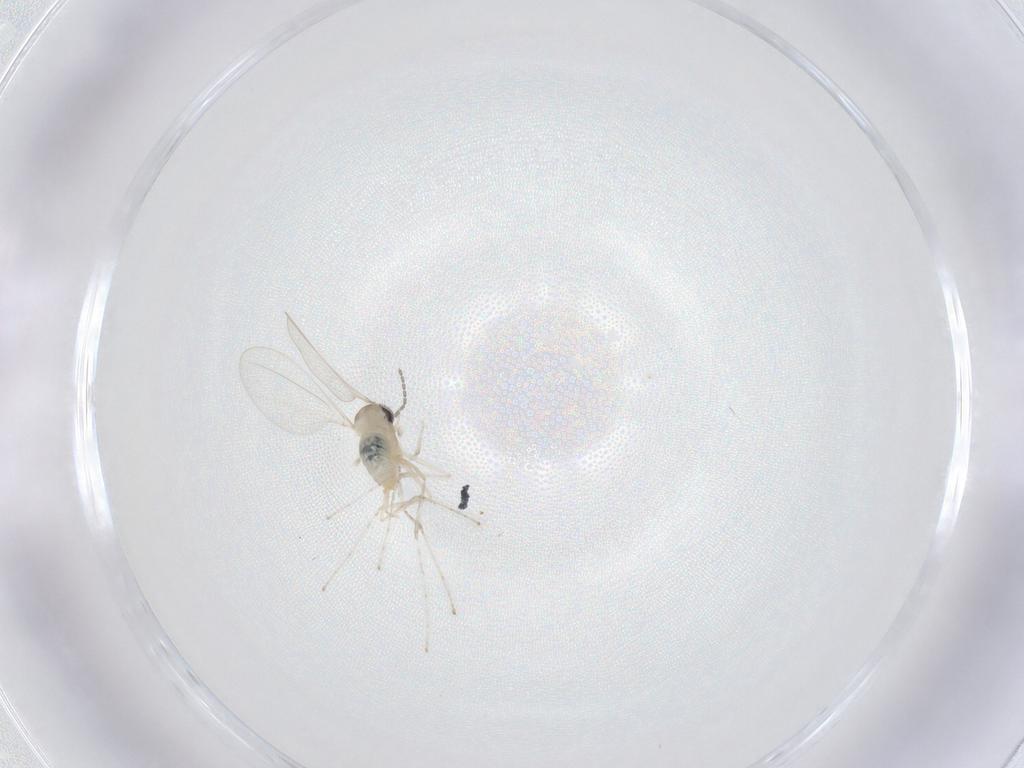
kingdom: Animalia
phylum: Arthropoda
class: Insecta
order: Diptera
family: Cecidomyiidae
